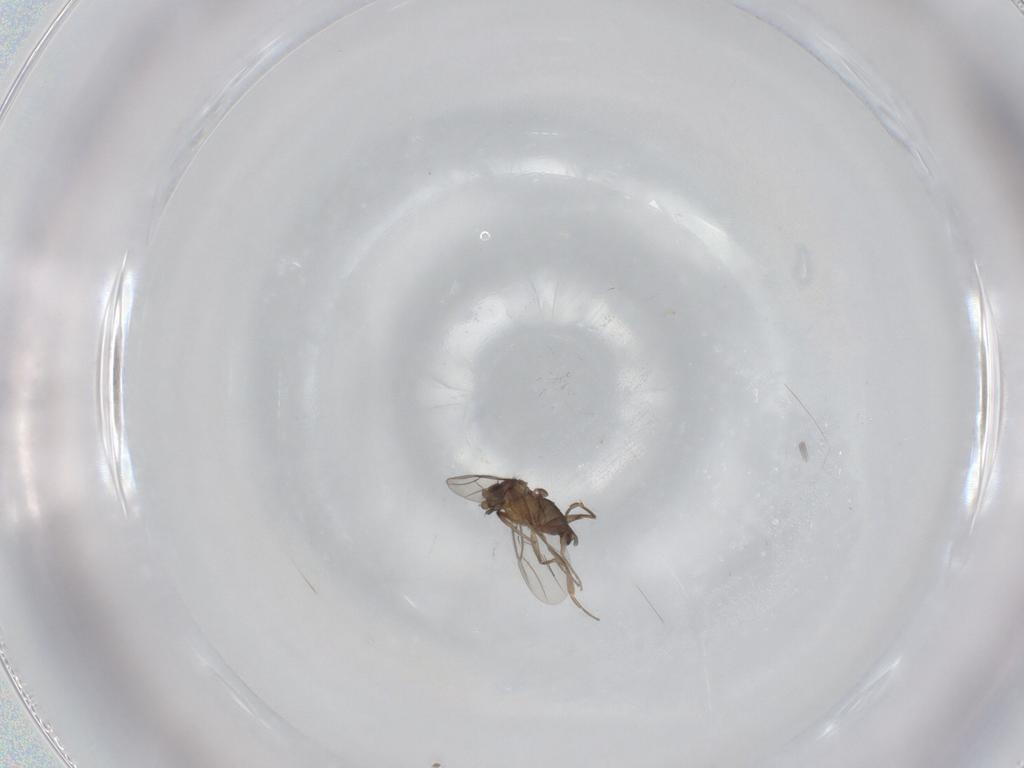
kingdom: Animalia
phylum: Arthropoda
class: Insecta
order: Diptera
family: Phoridae
